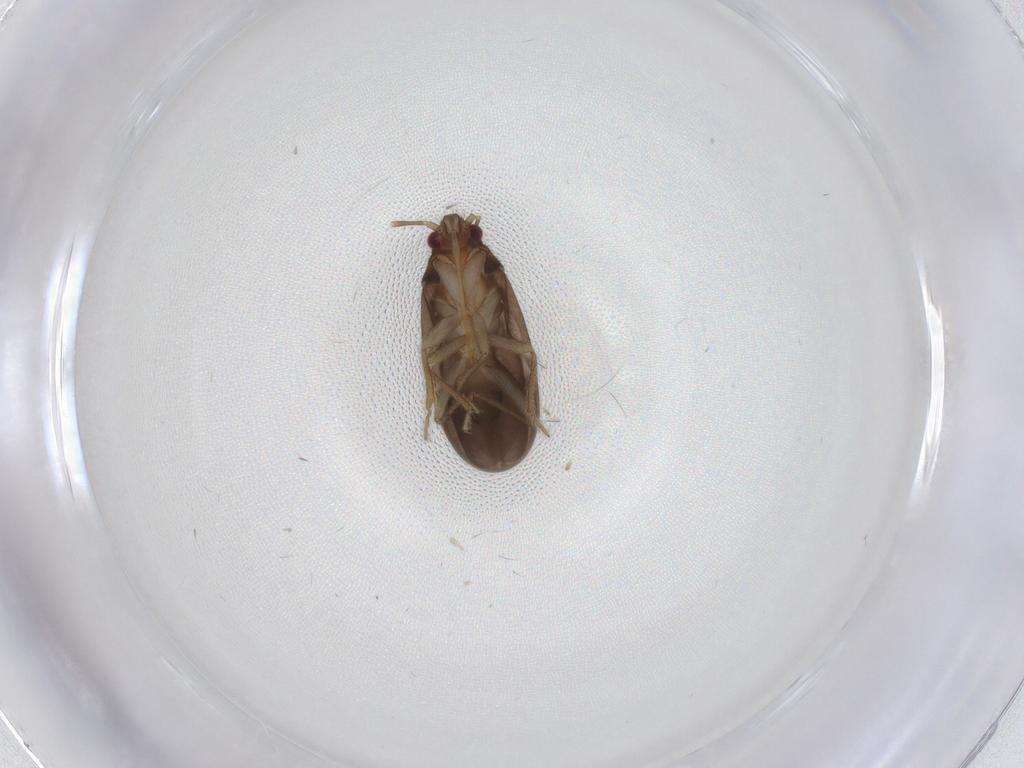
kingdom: Animalia
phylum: Arthropoda
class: Insecta
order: Hemiptera
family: Ceratocombidae
